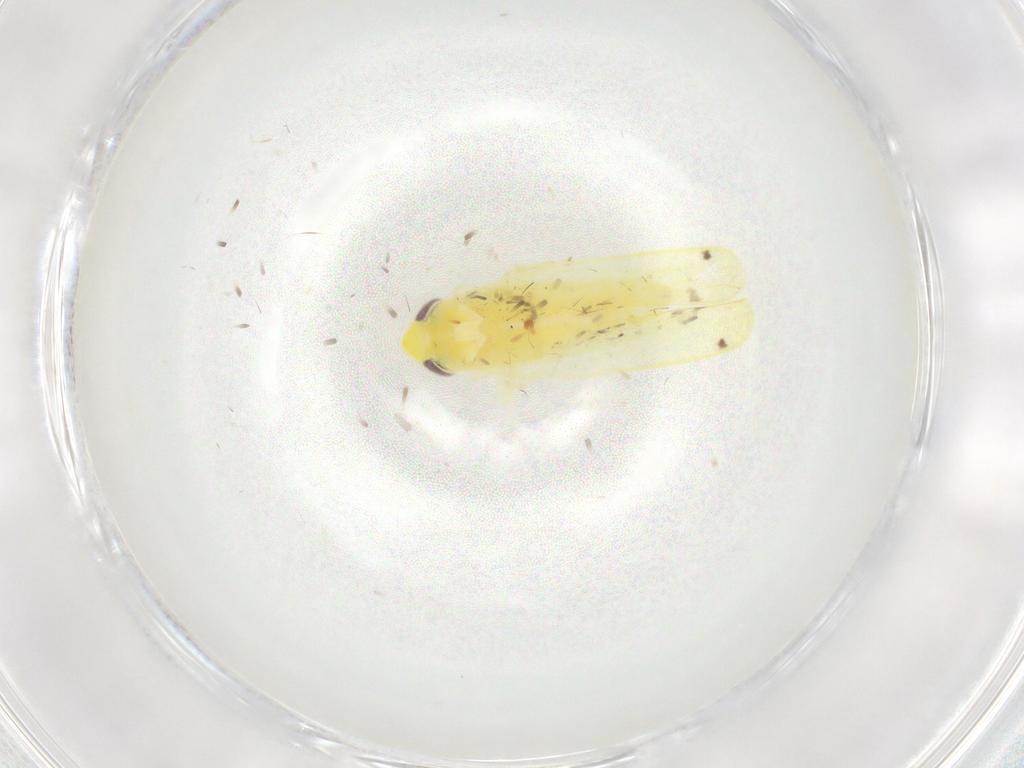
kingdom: Animalia
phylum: Arthropoda
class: Insecta
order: Hemiptera
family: Cicadellidae
